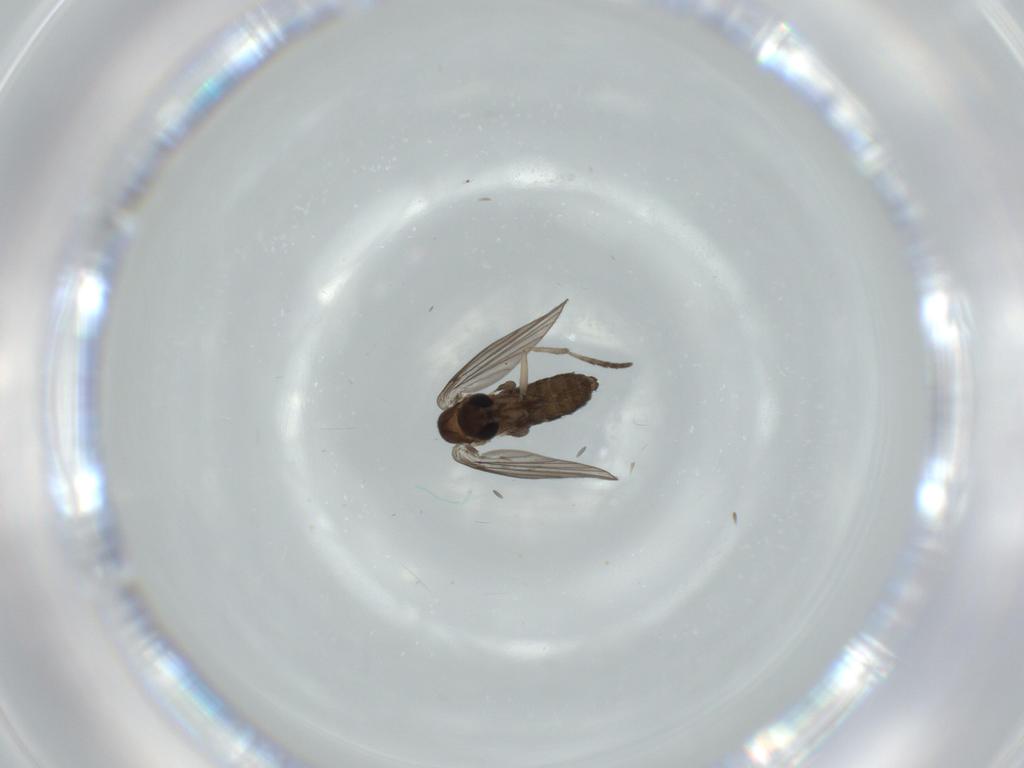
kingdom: Animalia
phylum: Arthropoda
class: Insecta
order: Diptera
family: Psychodidae
